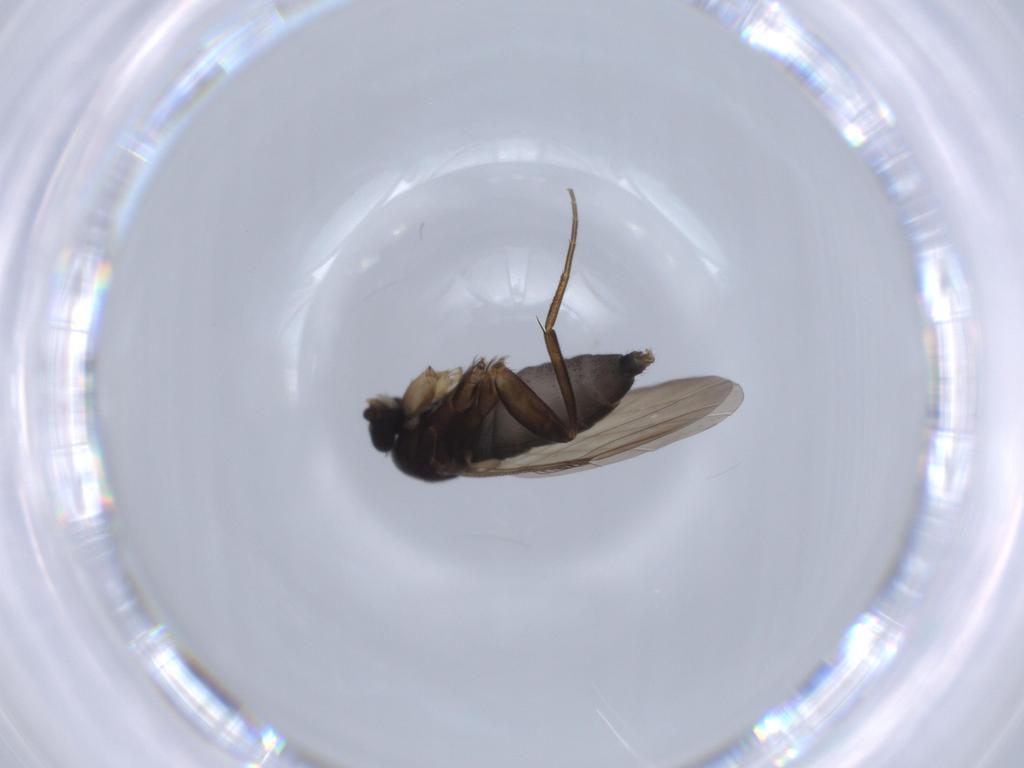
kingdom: Animalia
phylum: Arthropoda
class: Insecta
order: Diptera
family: Phoridae
